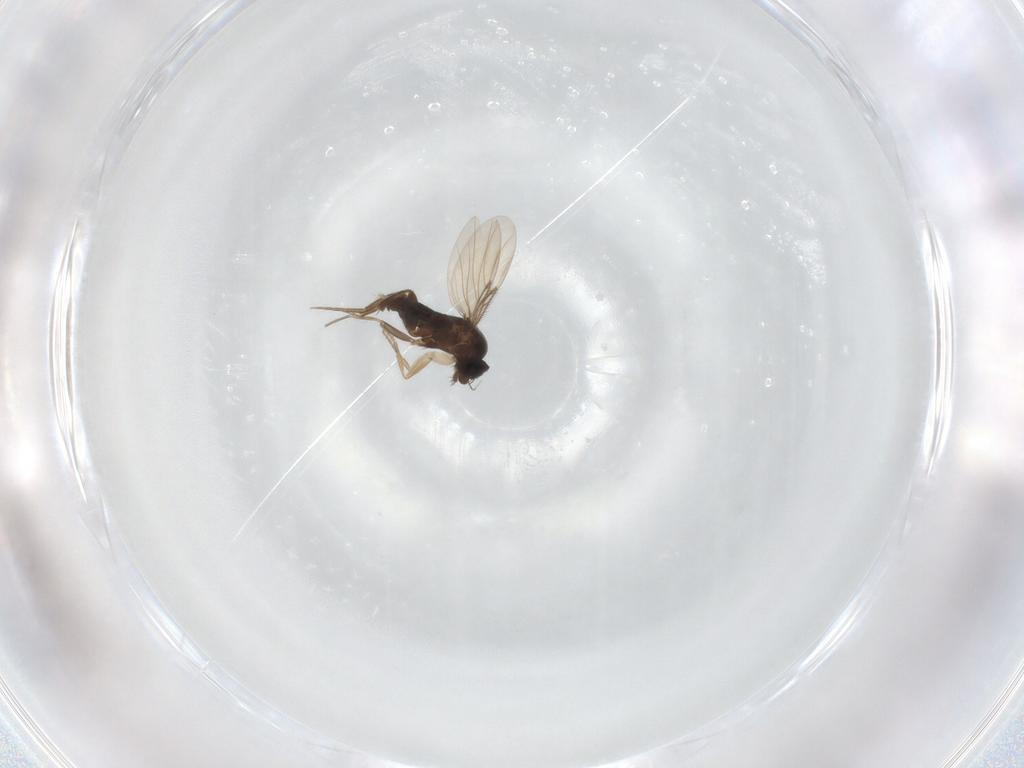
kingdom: Animalia
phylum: Arthropoda
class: Insecta
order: Diptera
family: Phoridae
